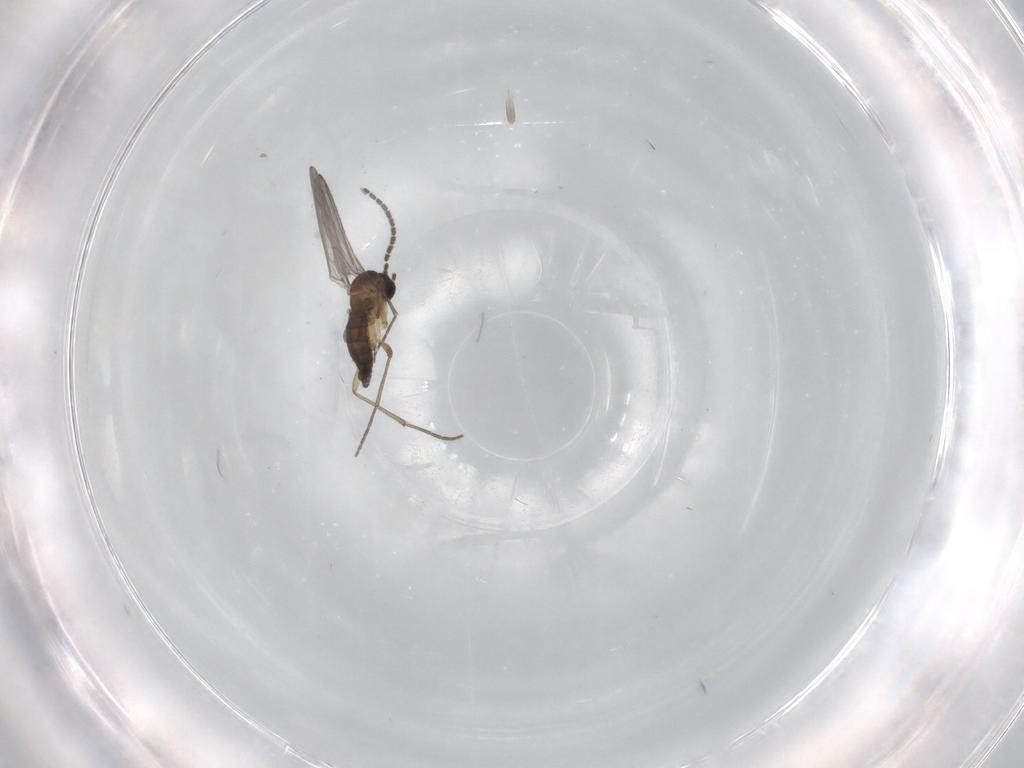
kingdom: Animalia
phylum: Arthropoda
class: Insecta
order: Diptera
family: Sciaridae
